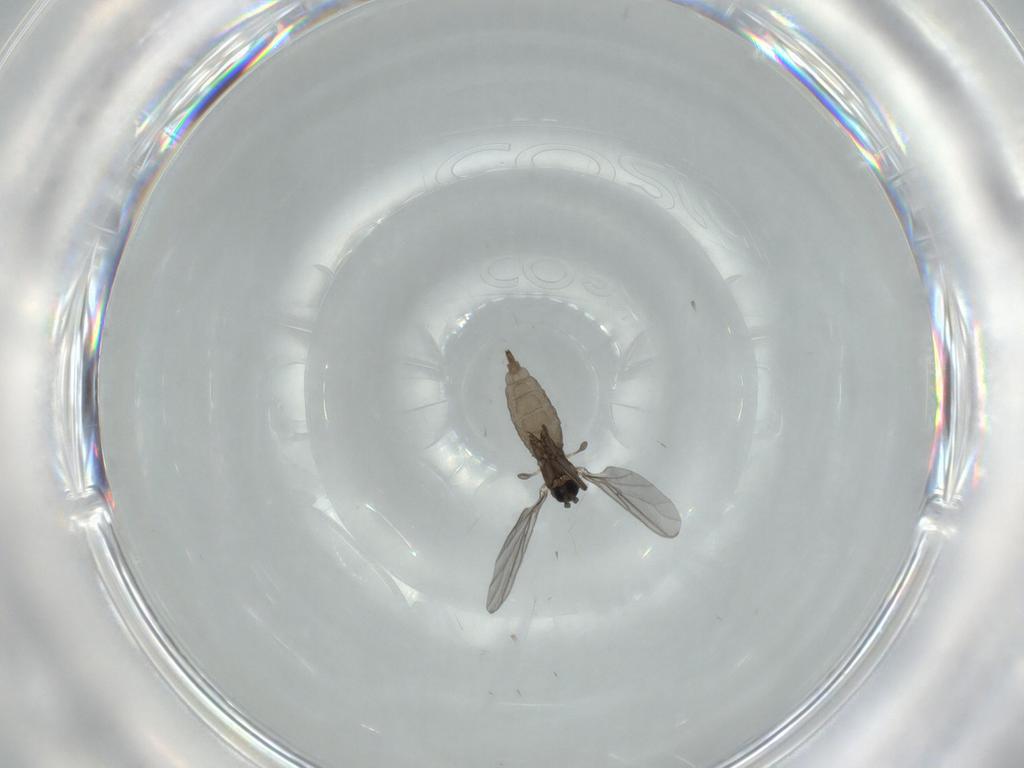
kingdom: Animalia
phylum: Arthropoda
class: Insecta
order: Diptera
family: Sciaridae
